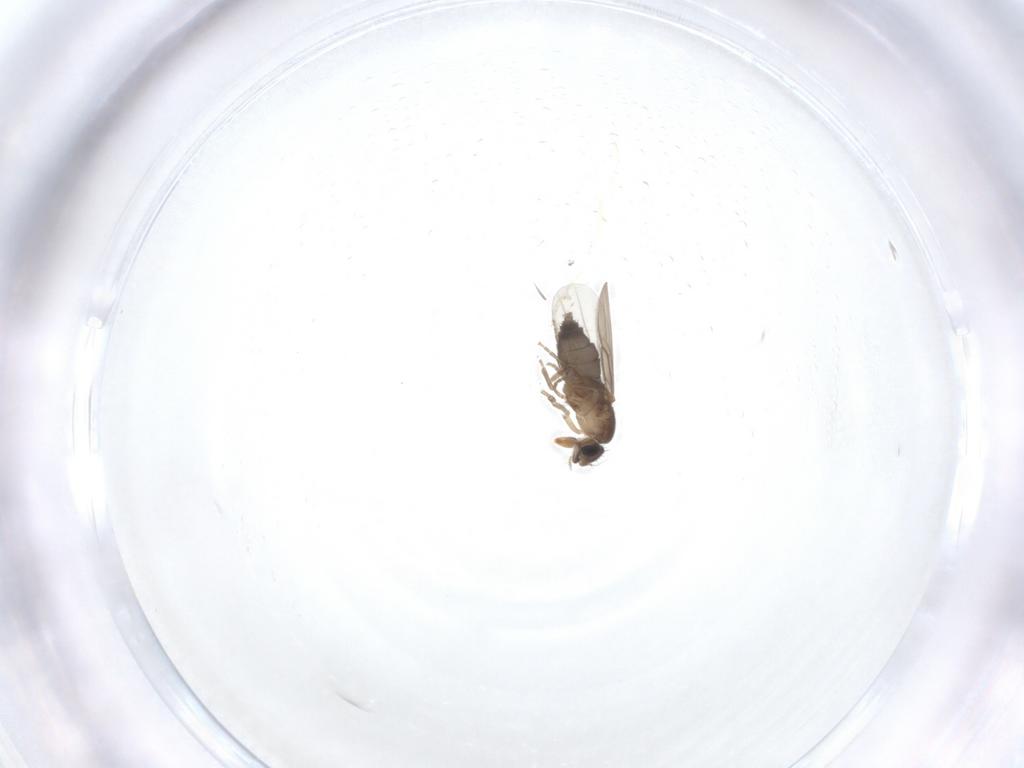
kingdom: Animalia
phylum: Arthropoda
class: Insecta
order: Diptera
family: Phoridae
